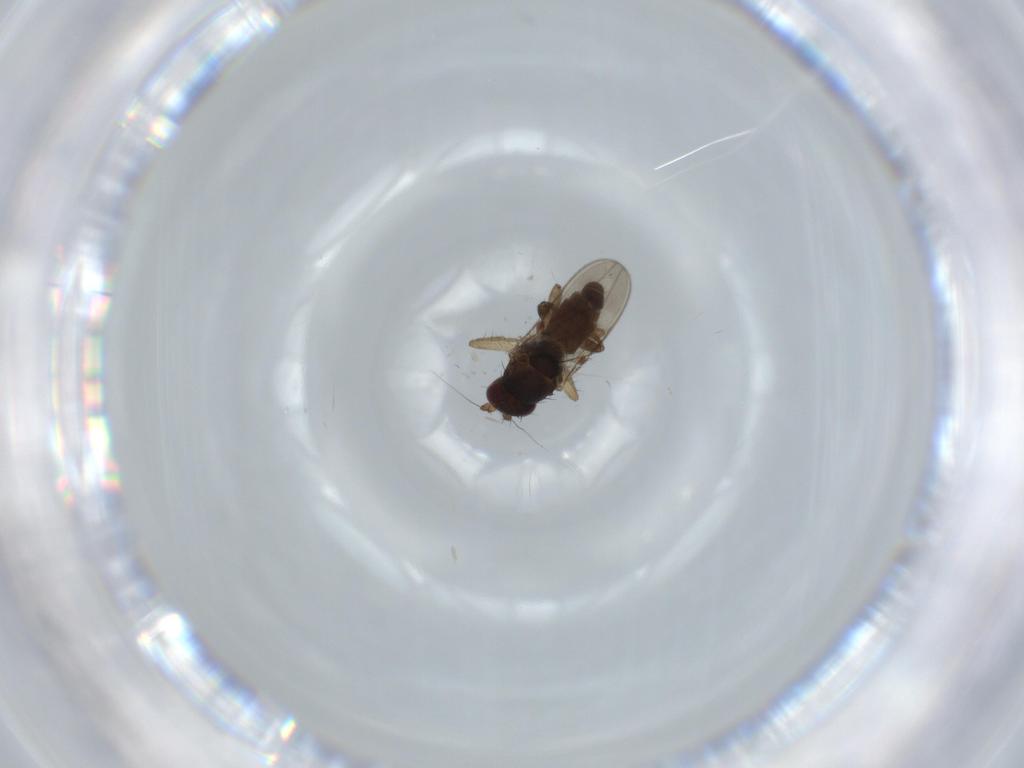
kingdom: Animalia
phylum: Arthropoda
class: Insecta
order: Diptera
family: Sphaeroceridae
